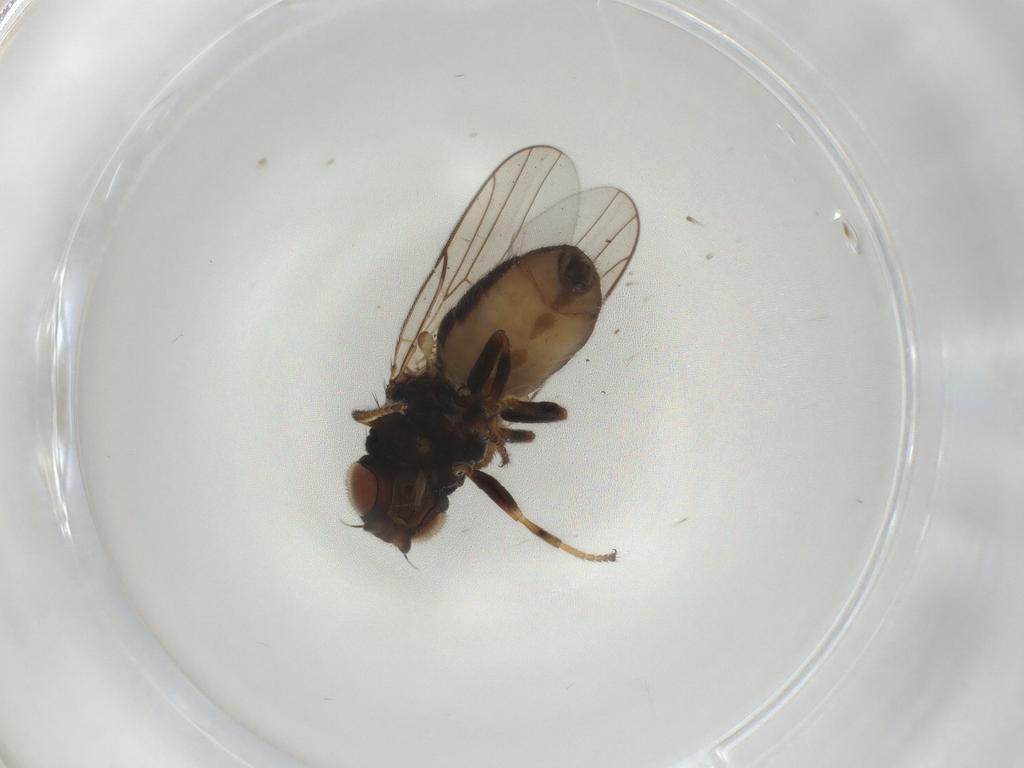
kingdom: Animalia
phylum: Arthropoda
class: Insecta
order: Diptera
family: Chloropidae
